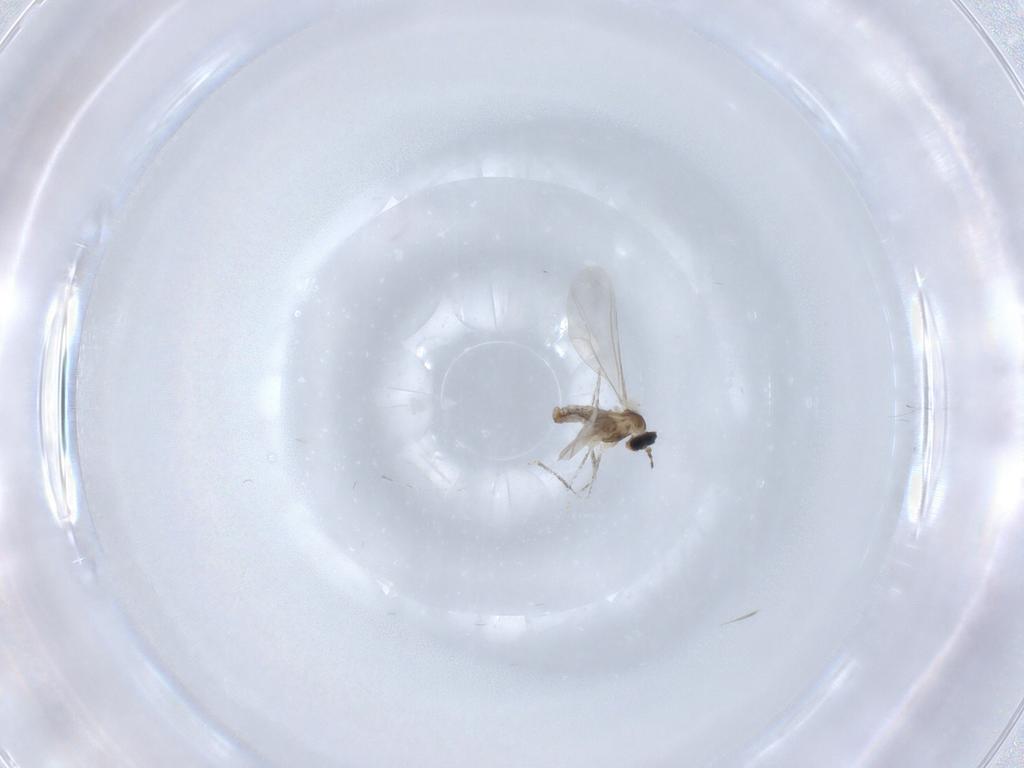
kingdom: Animalia
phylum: Arthropoda
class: Insecta
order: Diptera
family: Cecidomyiidae
